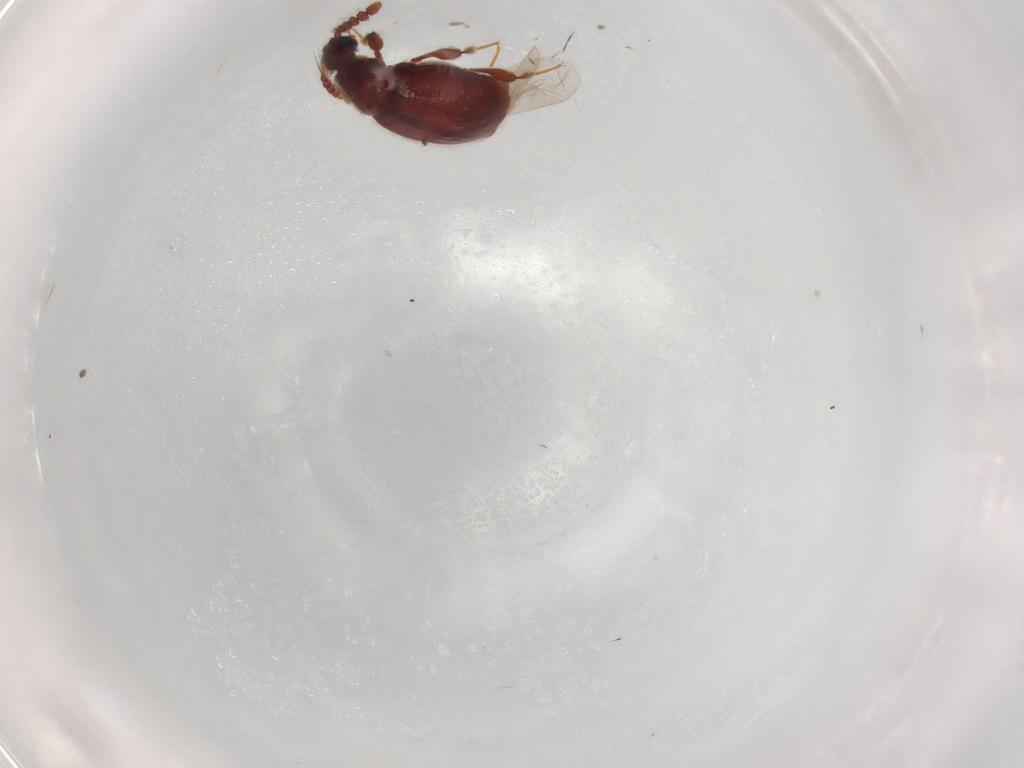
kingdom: Animalia
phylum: Arthropoda
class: Insecta
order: Coleoptera
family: Staphylinidae
